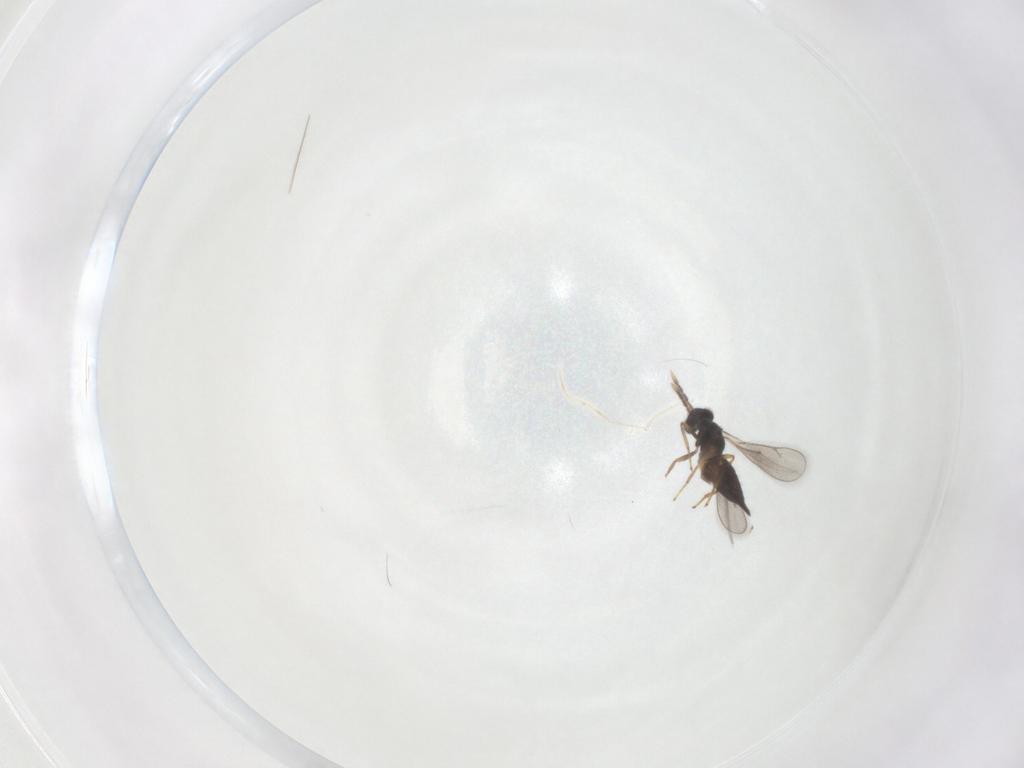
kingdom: Animalia
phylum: Arthropoda
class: Insecta
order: Hymenoptera
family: Eulophidae
